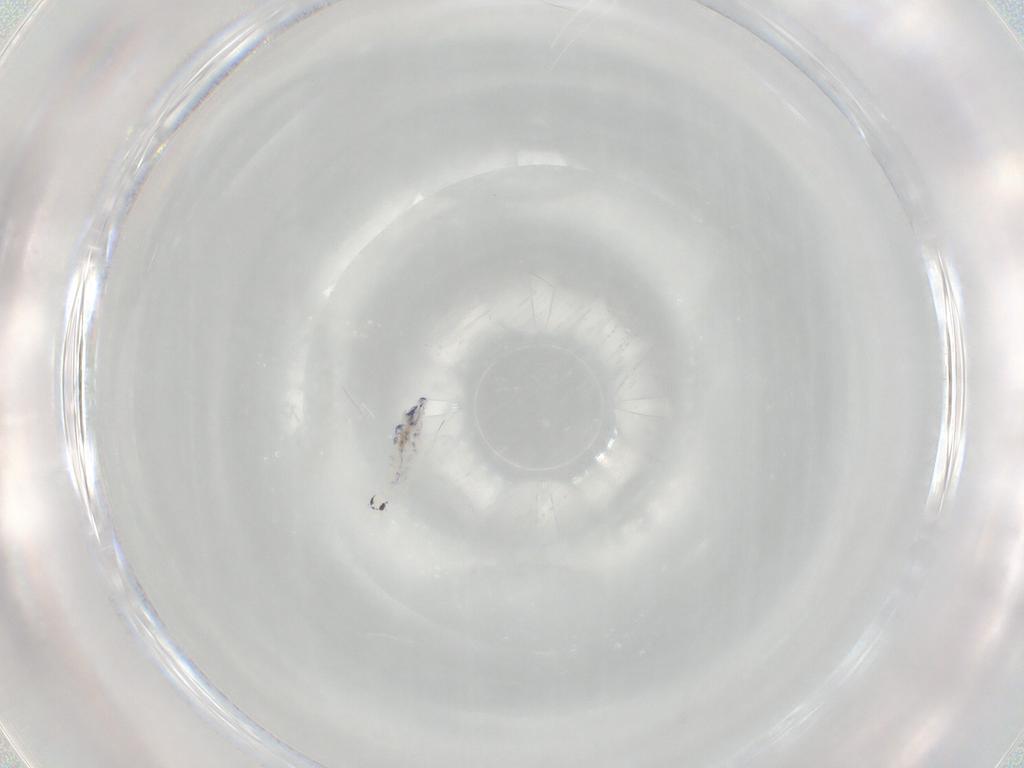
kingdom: Animalia
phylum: Arthropoda
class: Collembola
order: Entomobryomorpha
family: Entomobryidae
